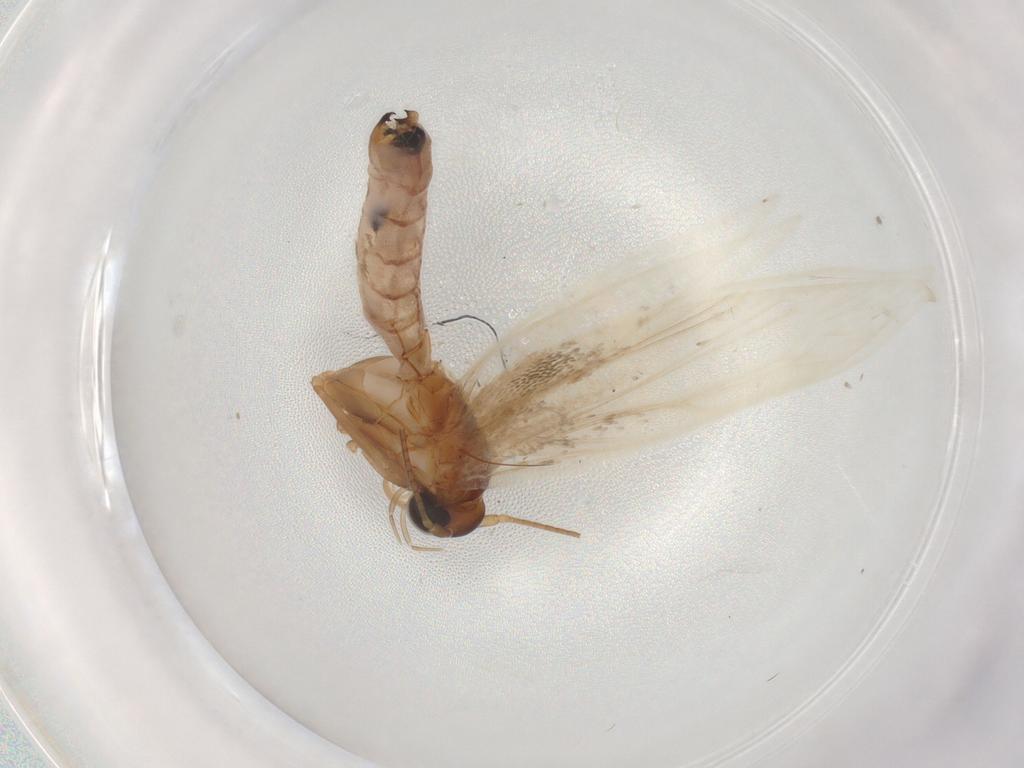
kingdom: Animalia
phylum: Arthropoda
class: Insecta
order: Lepidoptera
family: Scythrididae
